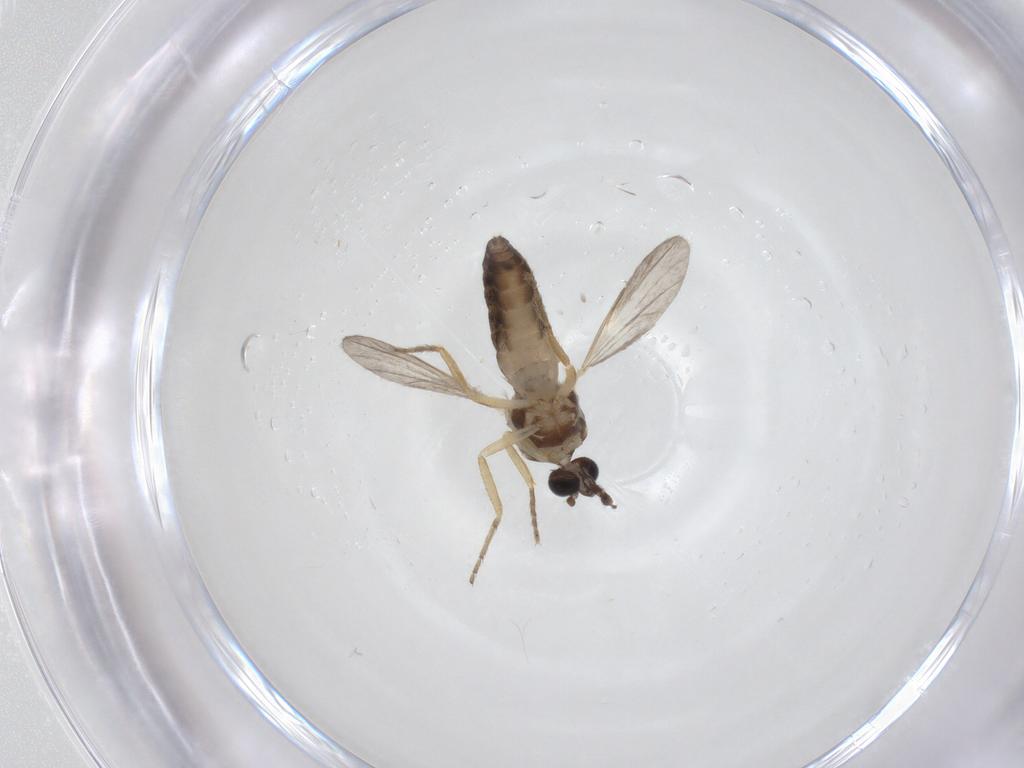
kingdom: Animalia
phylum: Arthropoda
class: Insecta
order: Diptera
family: Ceratopogonidae
